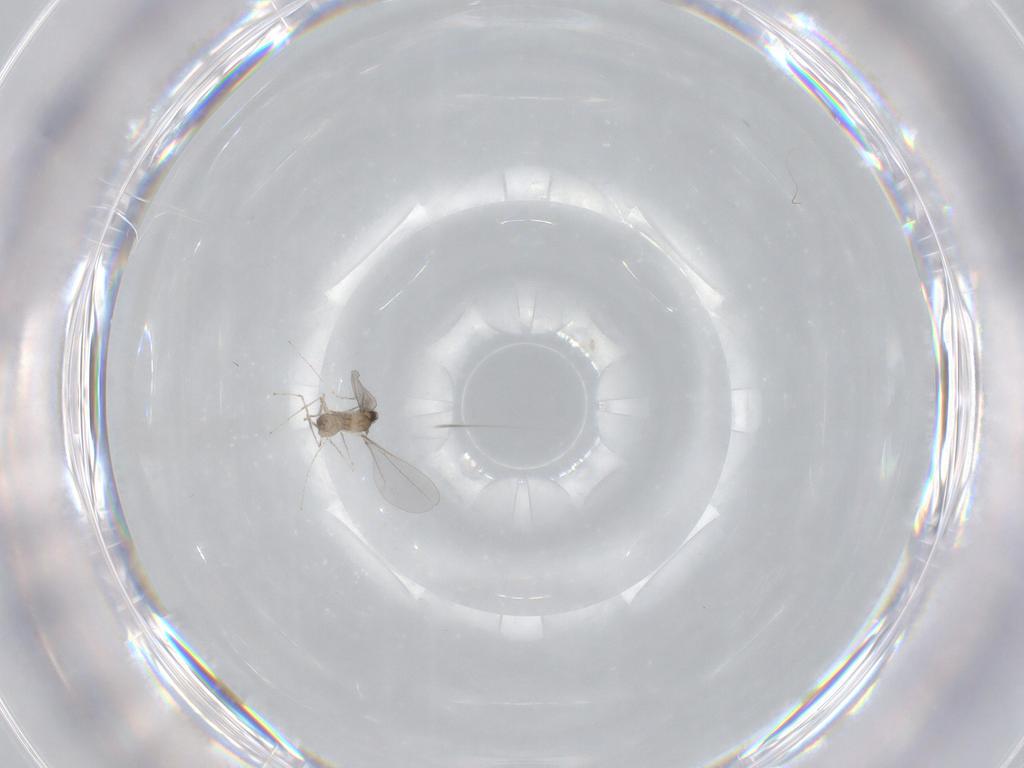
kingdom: Animalia
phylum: Arthropoda
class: Insecta
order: Diptera
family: Cecidomyiidae
